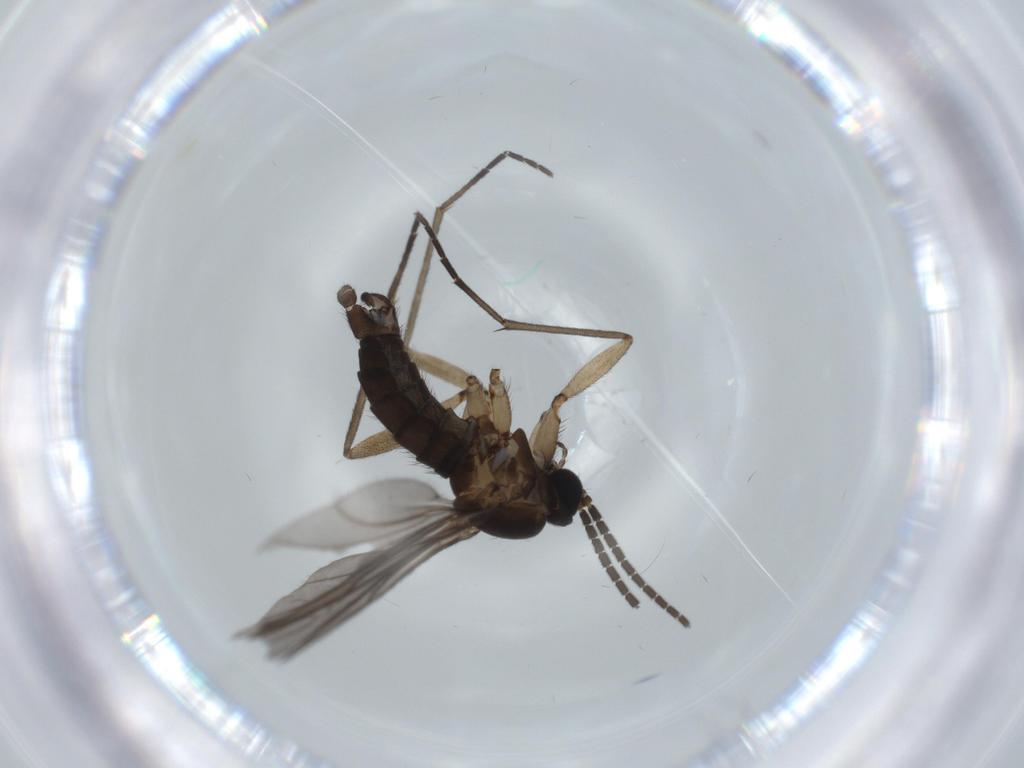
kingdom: Animalia
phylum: Arthropoda
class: Insecta
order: Diptera
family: Sciaridae
